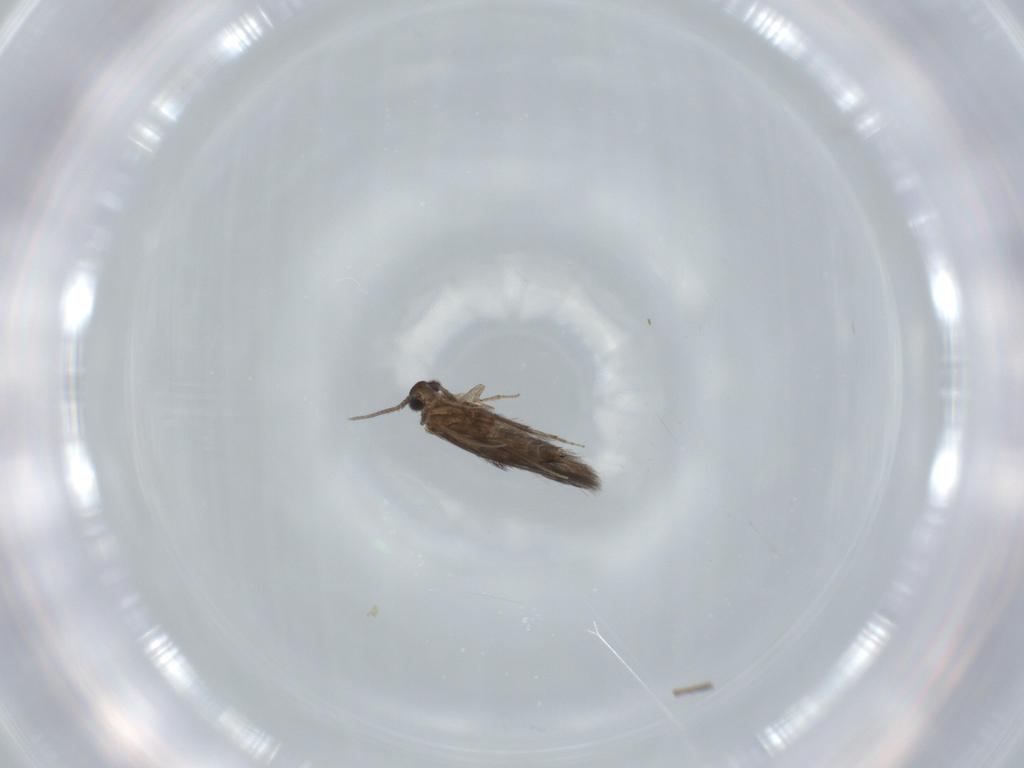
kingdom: Animalia
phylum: Arthropoda
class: Insecta
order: Trichoptera
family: Hydroptilidae
